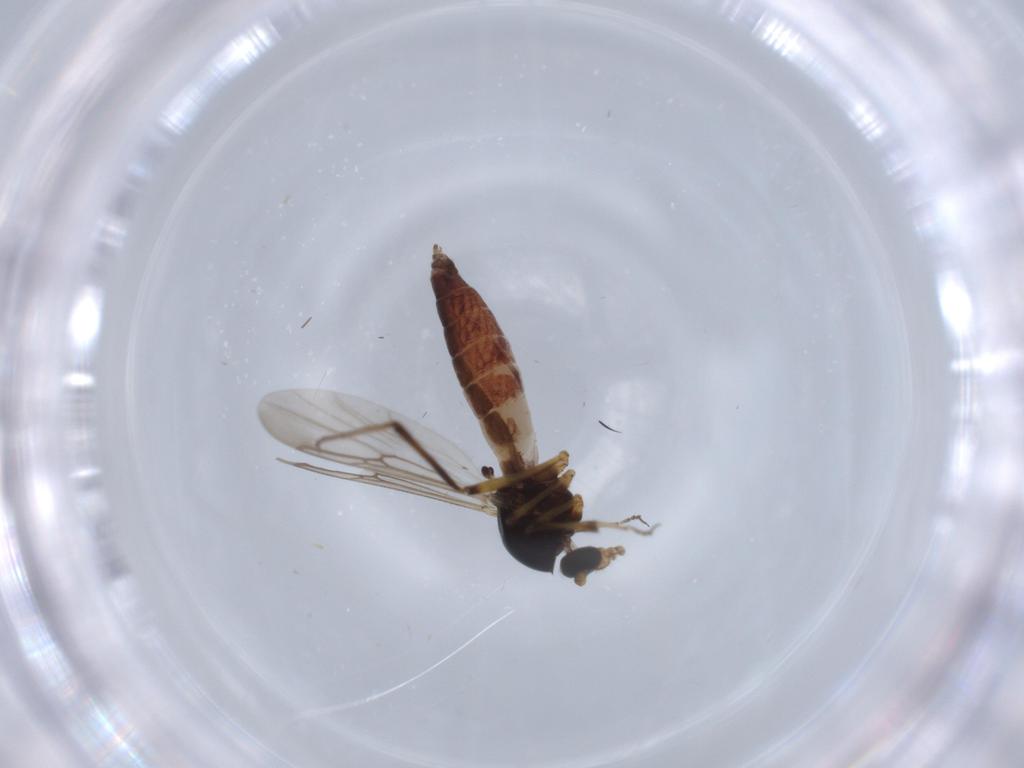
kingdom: Animalia
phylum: Arthropoda
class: Insecta
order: Diptera
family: Ceratopogonidae
